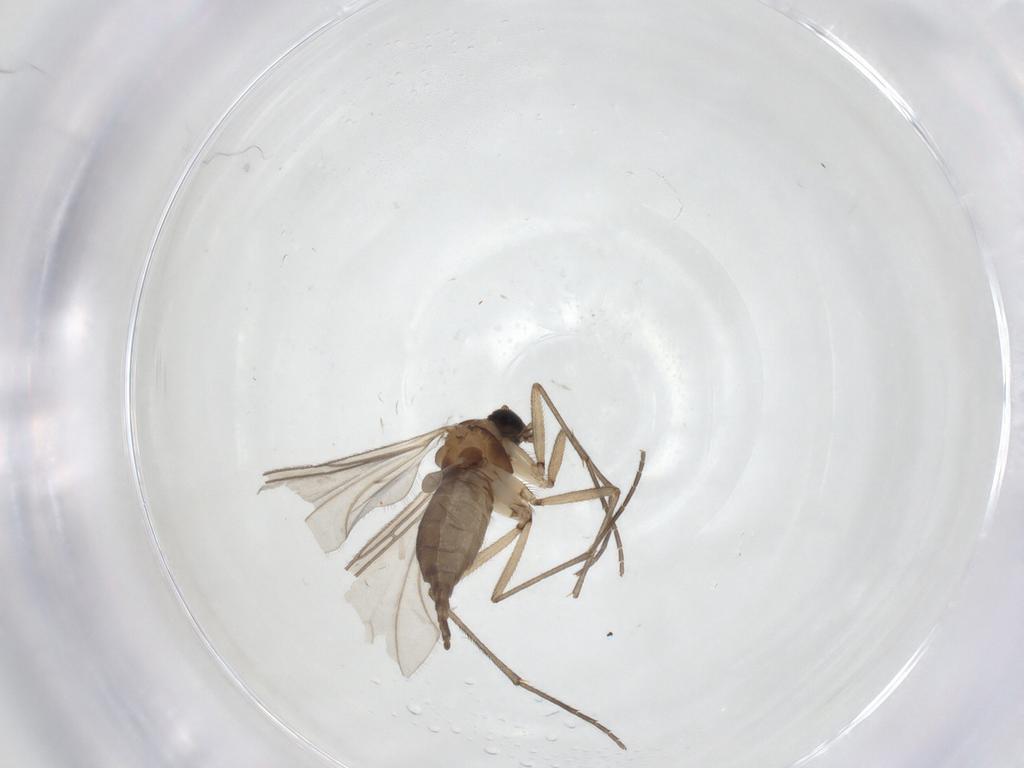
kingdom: Animalia
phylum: Arthropoda
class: Insecta
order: Diptera
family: Sciaridae
